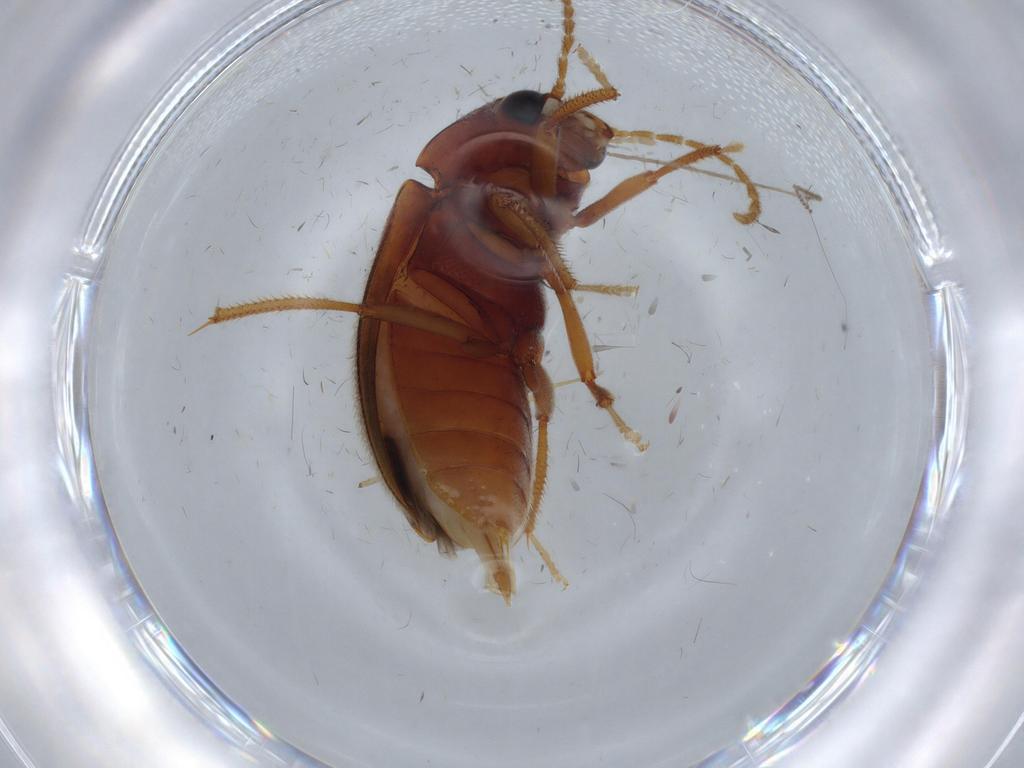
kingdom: Animalia
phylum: Arthropoda
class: Insecta
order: Coleoptera
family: Ptilodactylidae
